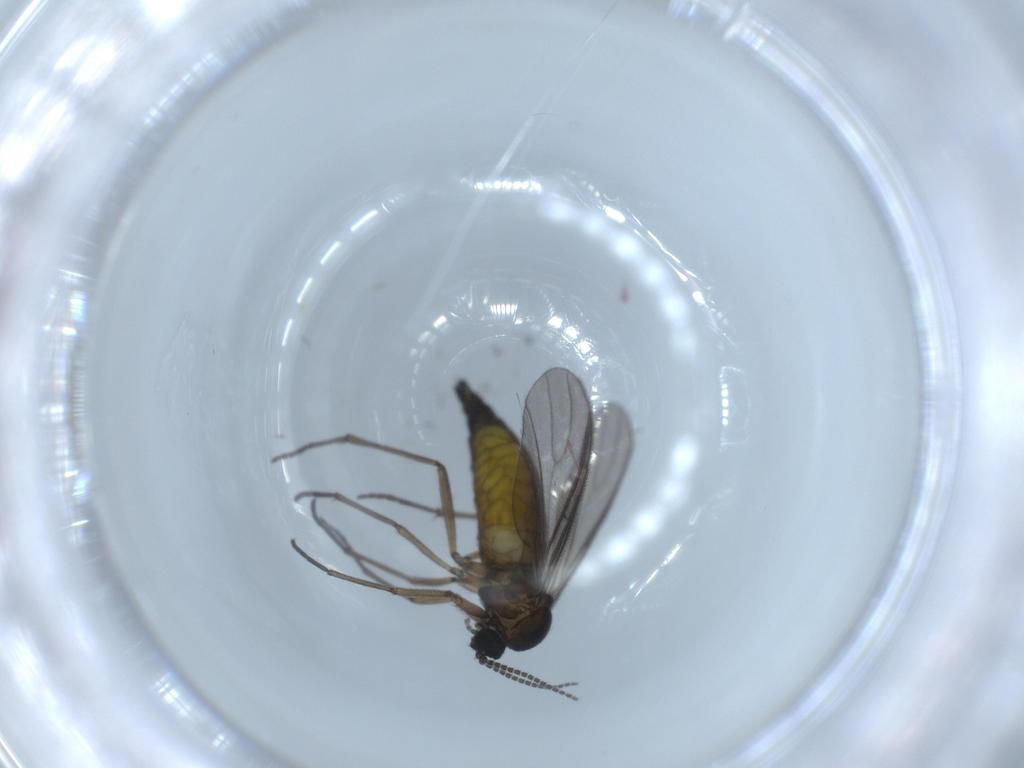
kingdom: Animalia
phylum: Arthropoda
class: Insecta
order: Diptera
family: Sciaridae
